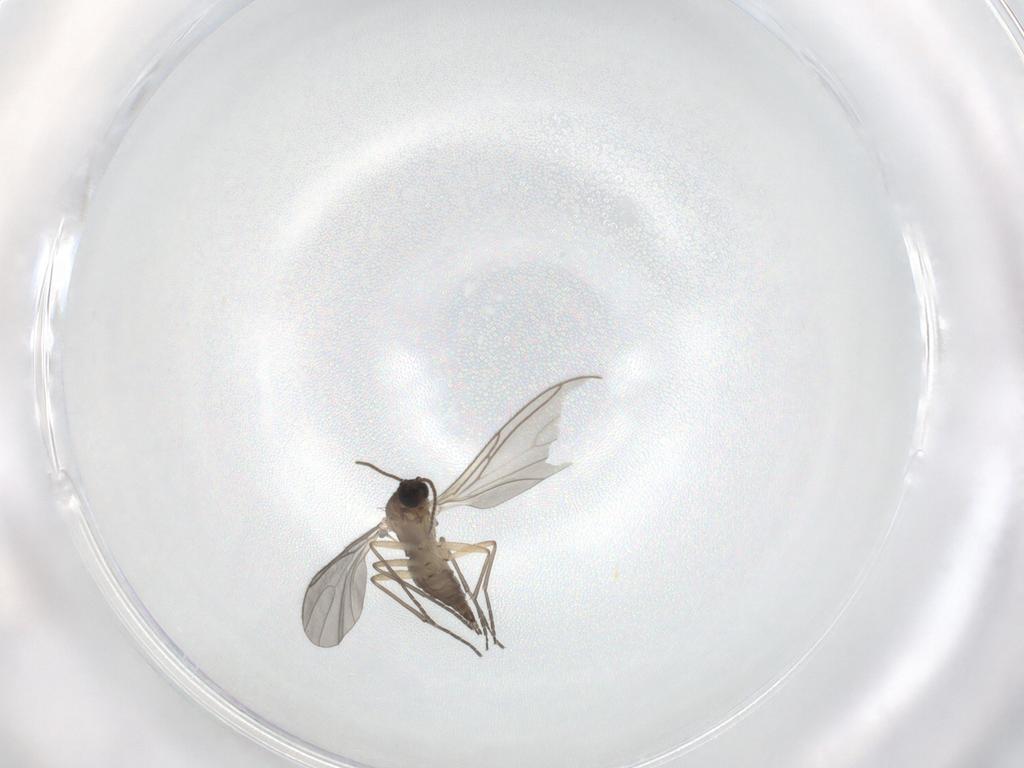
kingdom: Animalia
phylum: Arthropoda
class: Insecta
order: Diptera
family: Sciaridae
